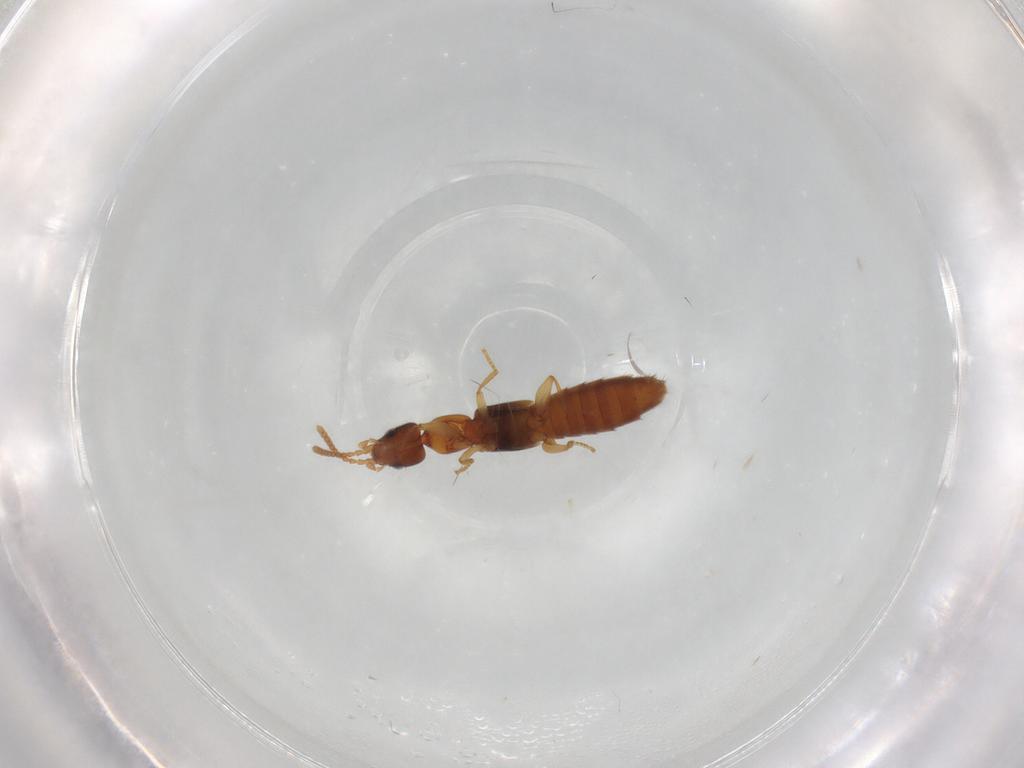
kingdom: Animalia
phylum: Arthropoda
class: Insecta
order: Coleoptera
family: Staphylinidae
